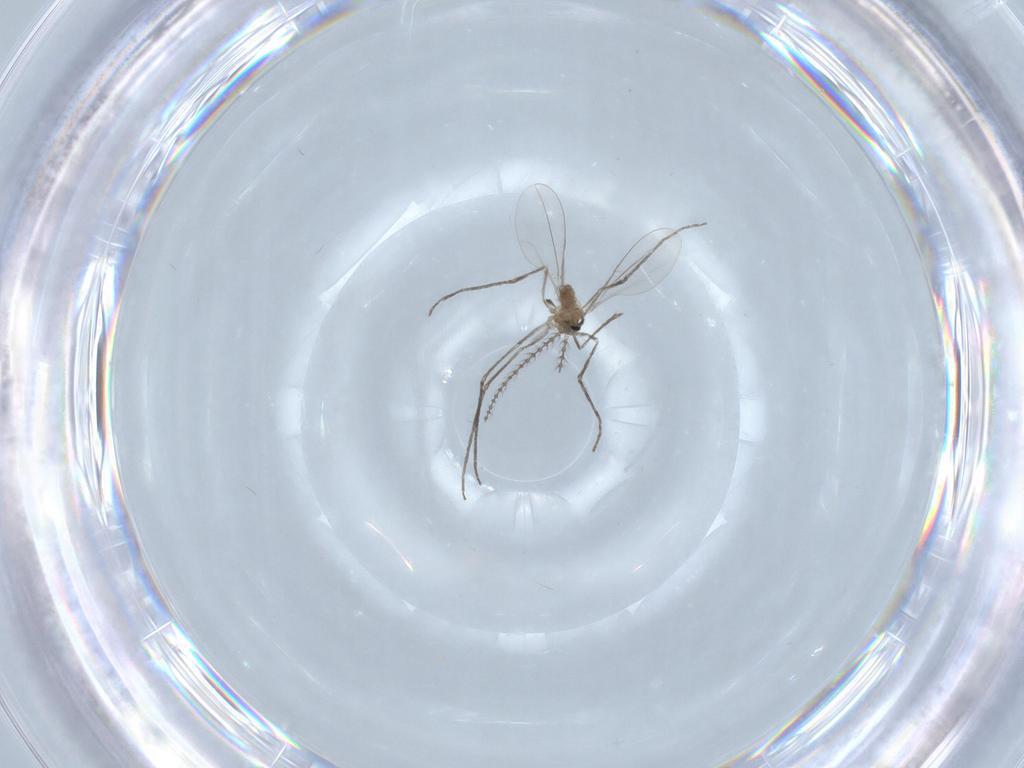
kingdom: Animalia
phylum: Arthropoda
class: Insecta
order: Diptera
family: Cecidomyiidae
